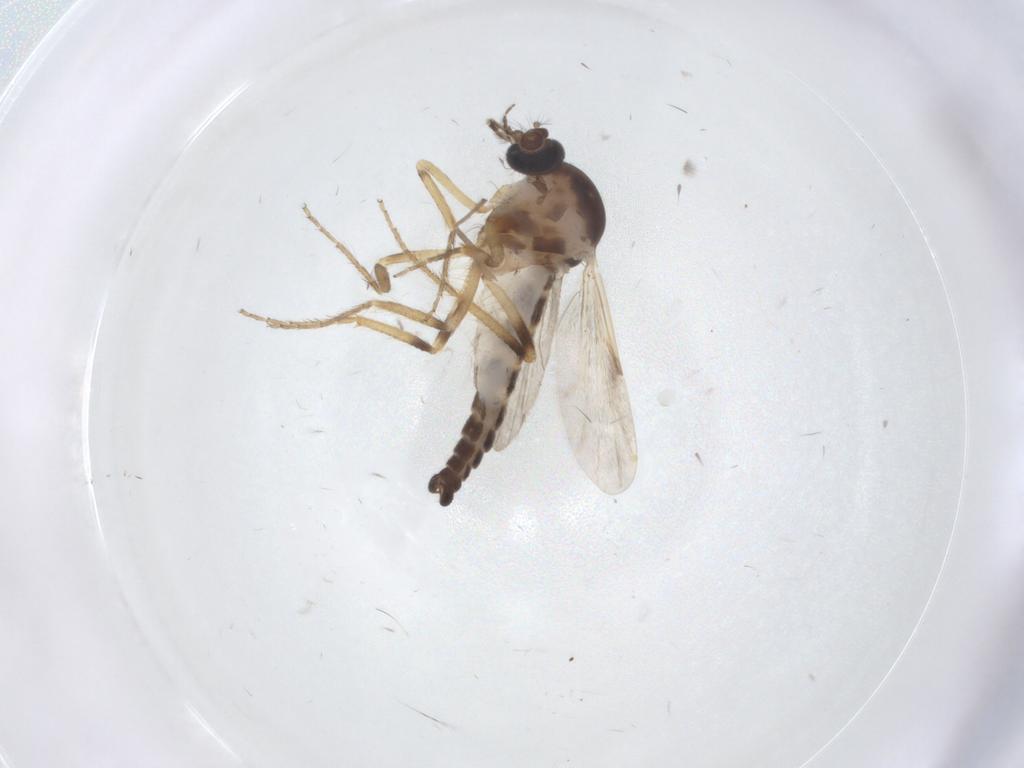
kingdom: Animalia
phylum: Arthropoda
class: Insecta
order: Diptera
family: Ceratopogonidae
